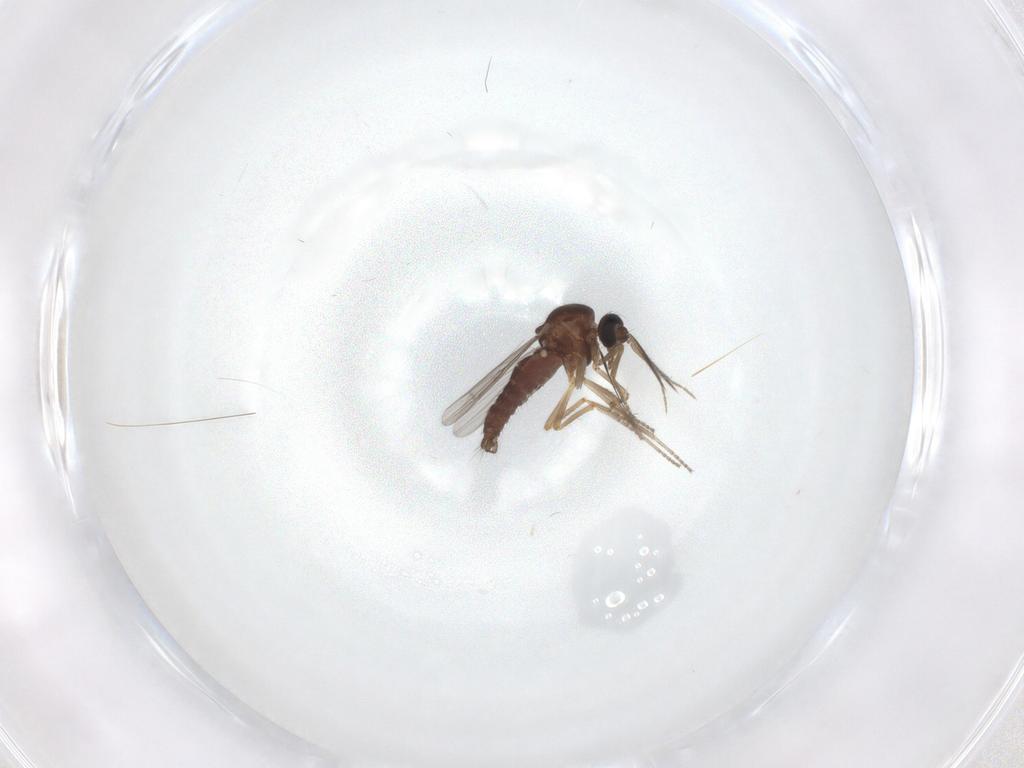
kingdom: Animalia
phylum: Arthropoda
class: Insecta
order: Diptera
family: Ceratopogonidae
